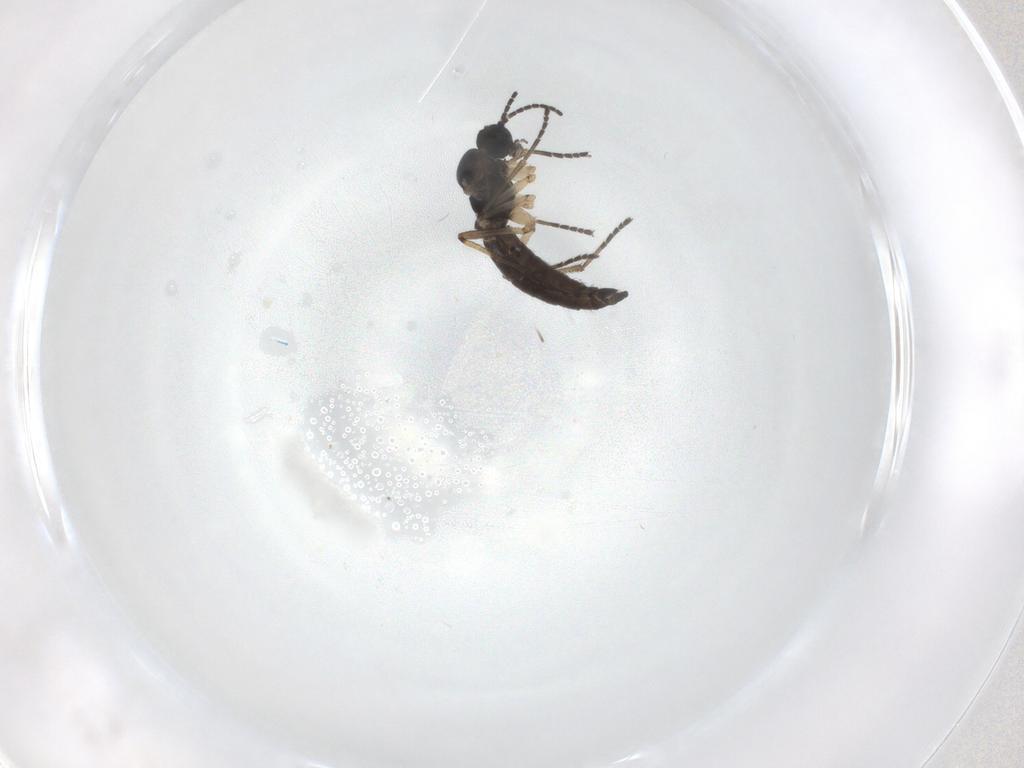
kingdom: Animalia
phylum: Arthropoda
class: Insecta
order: Diptera
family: Sciaridae
